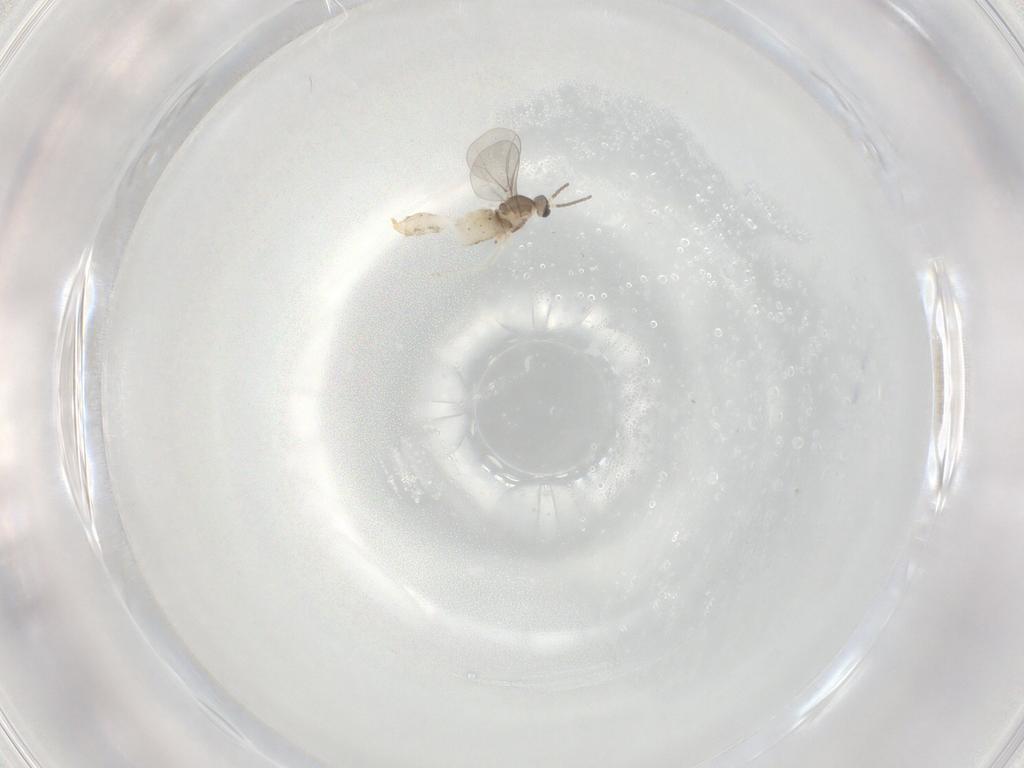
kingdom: Animalia
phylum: Arthropoda
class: Insecta
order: Diptera
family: Cecidomyiidae
